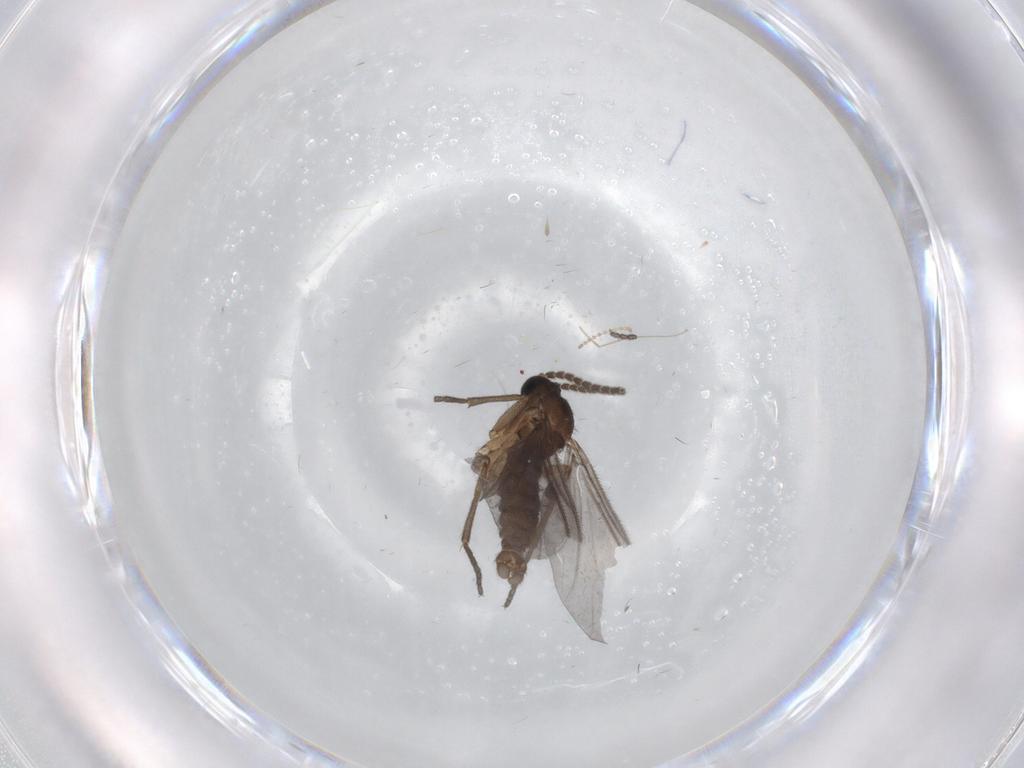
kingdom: Animalia
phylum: Arthropoda
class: Insecta
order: Diptera
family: Sciaridae
